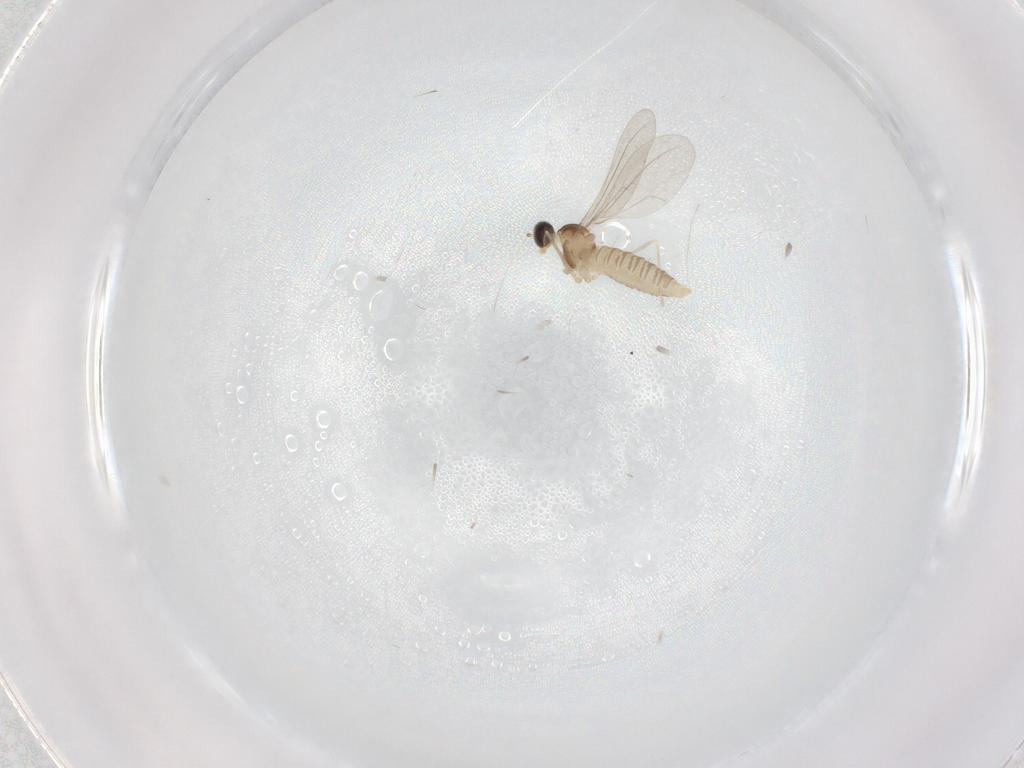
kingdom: Animalia
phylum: Arthropoda
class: Insecta
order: Diptera
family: Cecidomyiidae
